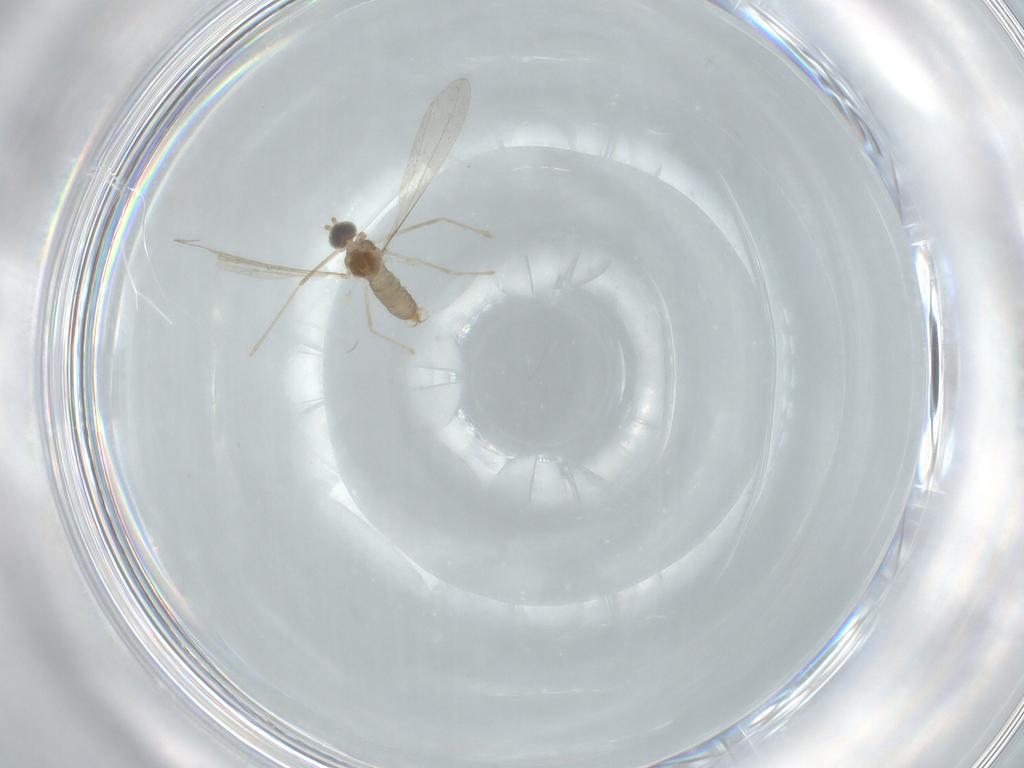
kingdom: Animalia
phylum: Arthropoda
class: Insecta
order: Diptera
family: Cecidomyiidae
